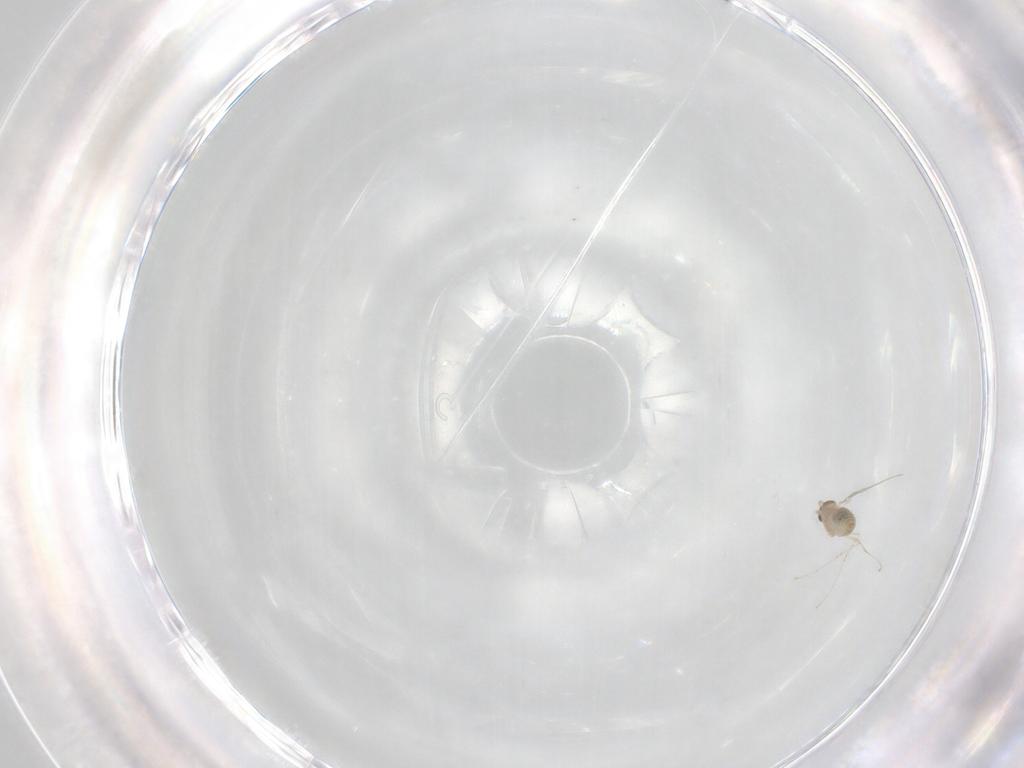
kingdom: Animalia
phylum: Arthropoda
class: Insecta
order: Diptera
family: Cecidomyiidae
